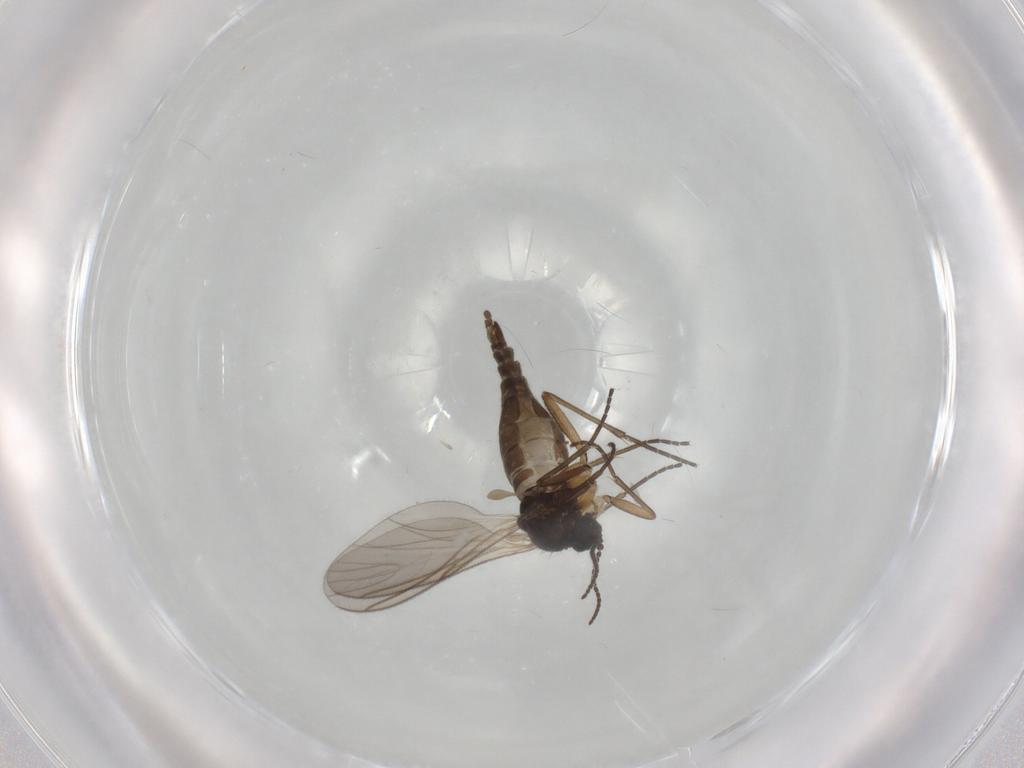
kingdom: Animalia
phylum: Arthropoda
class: Insecta
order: Diptera
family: Sciaridae
